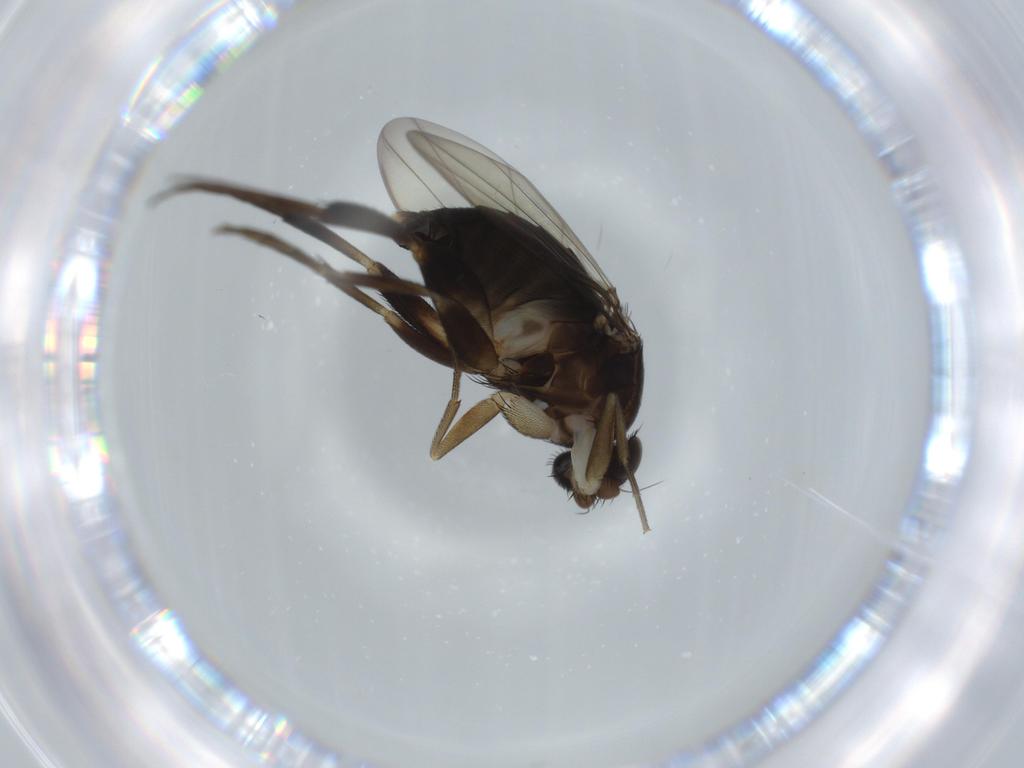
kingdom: Animalia
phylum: Arthropoda
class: Insecta
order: Diptera
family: Phoridae
